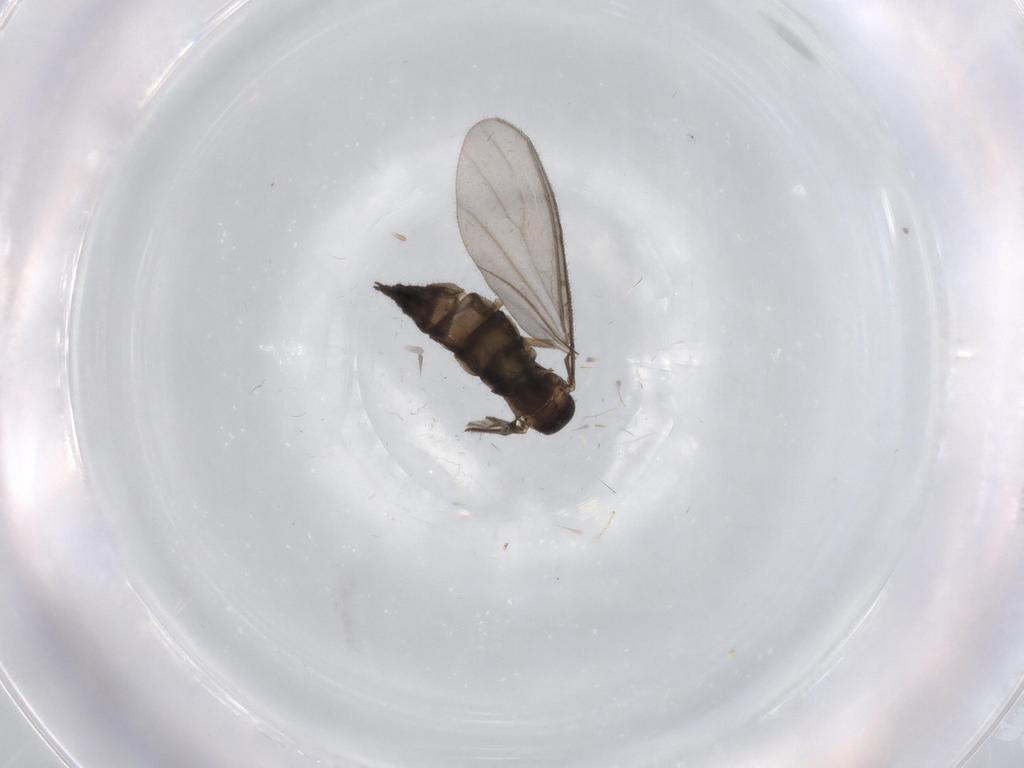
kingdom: Animalia
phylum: Arthropoda
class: Insecta
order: Diptera
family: Sciaridae
